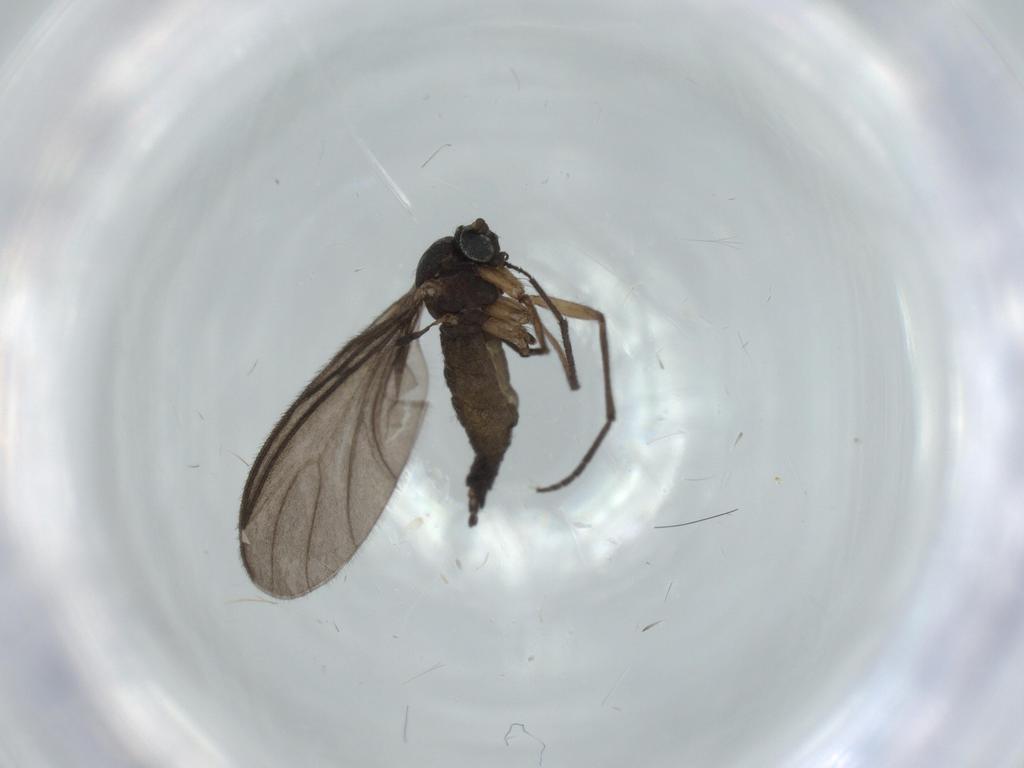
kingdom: Animalia
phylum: Arthropoda
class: Insecta
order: Diptera
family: Sciaridae
